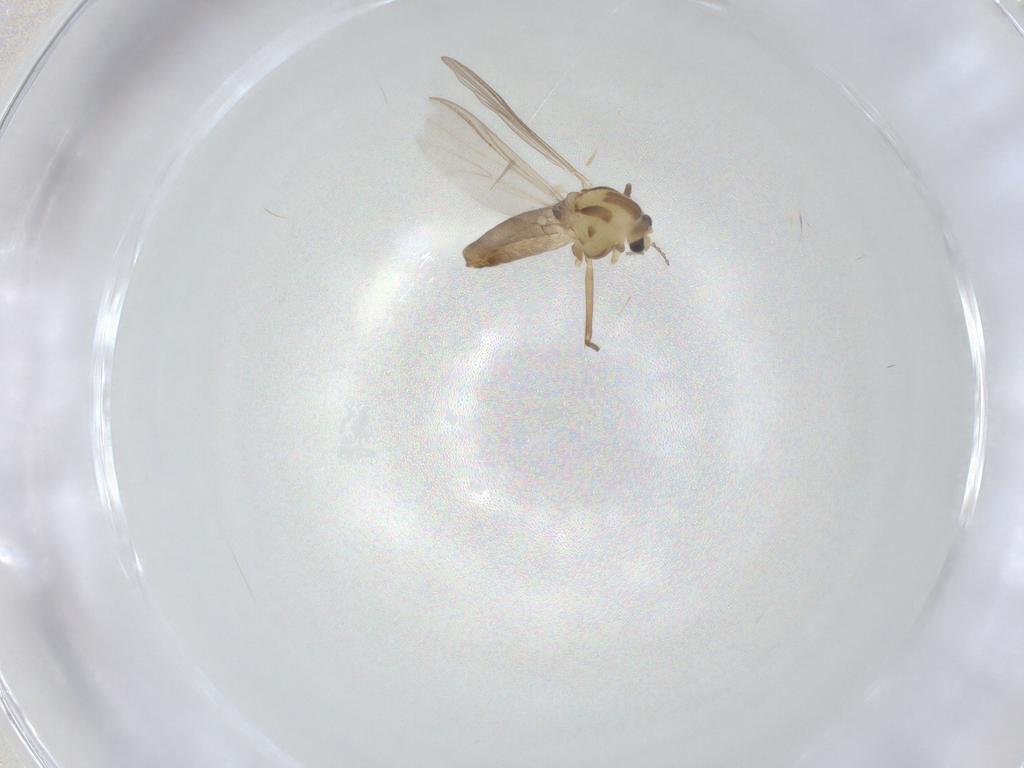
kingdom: Animalia
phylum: Arthropoda
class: Insecta
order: Diptera
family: Chironomidae
